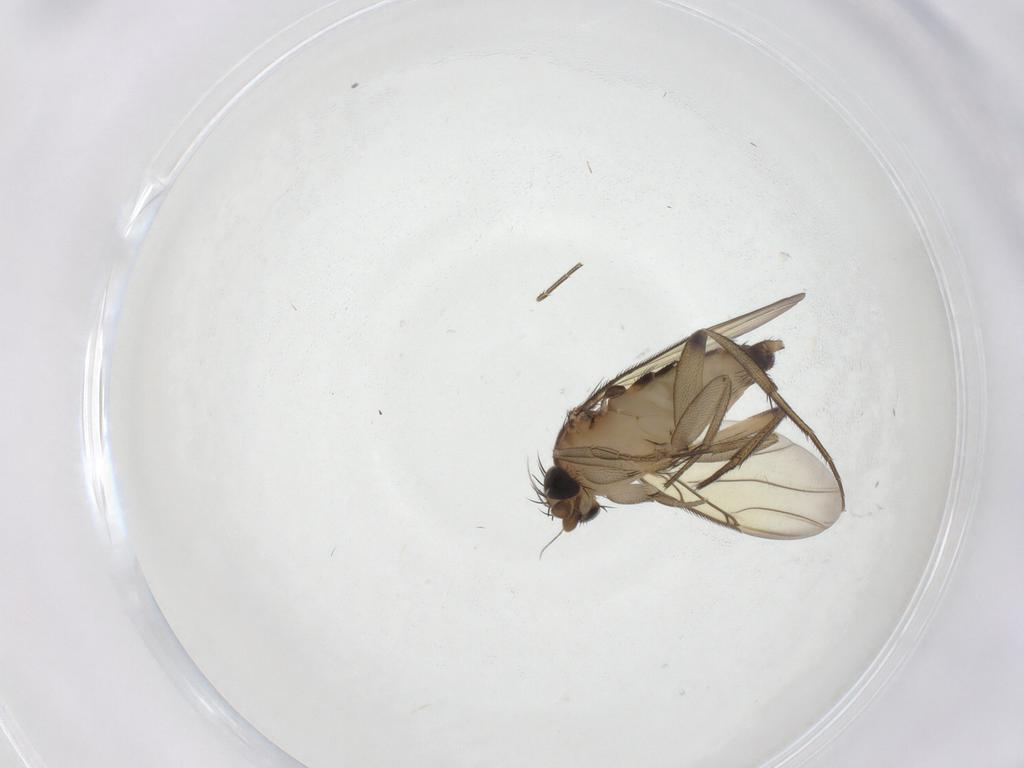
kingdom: Animalia
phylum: Arthropoda
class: Insecta
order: Diptera
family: Phoridae
